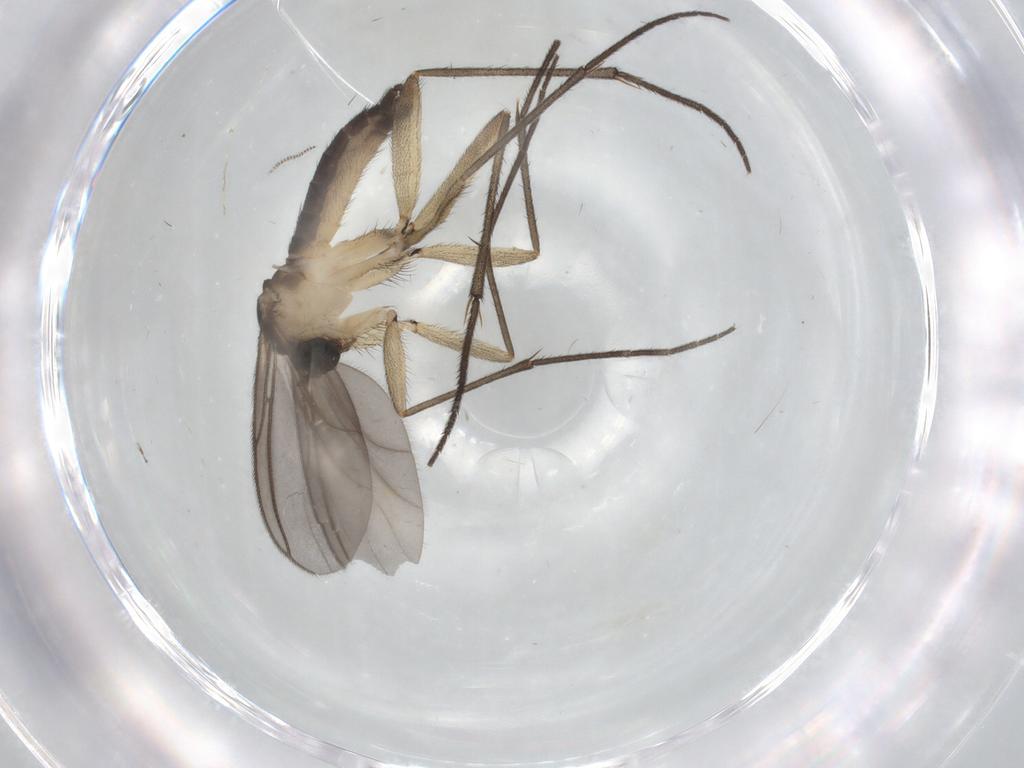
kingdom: Animalia
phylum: Arthropoda
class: Insecta
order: Diptera
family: Sciaridae
